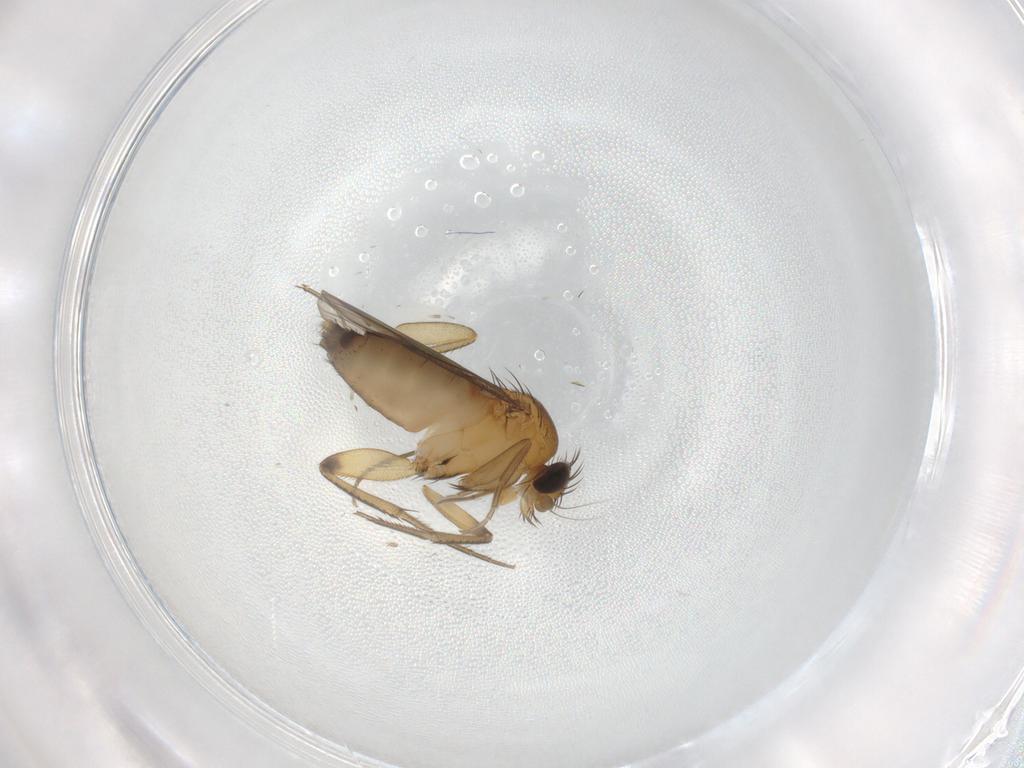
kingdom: Animalia
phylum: Arthropoda
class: Insecta
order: Diptera
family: Phoridae
